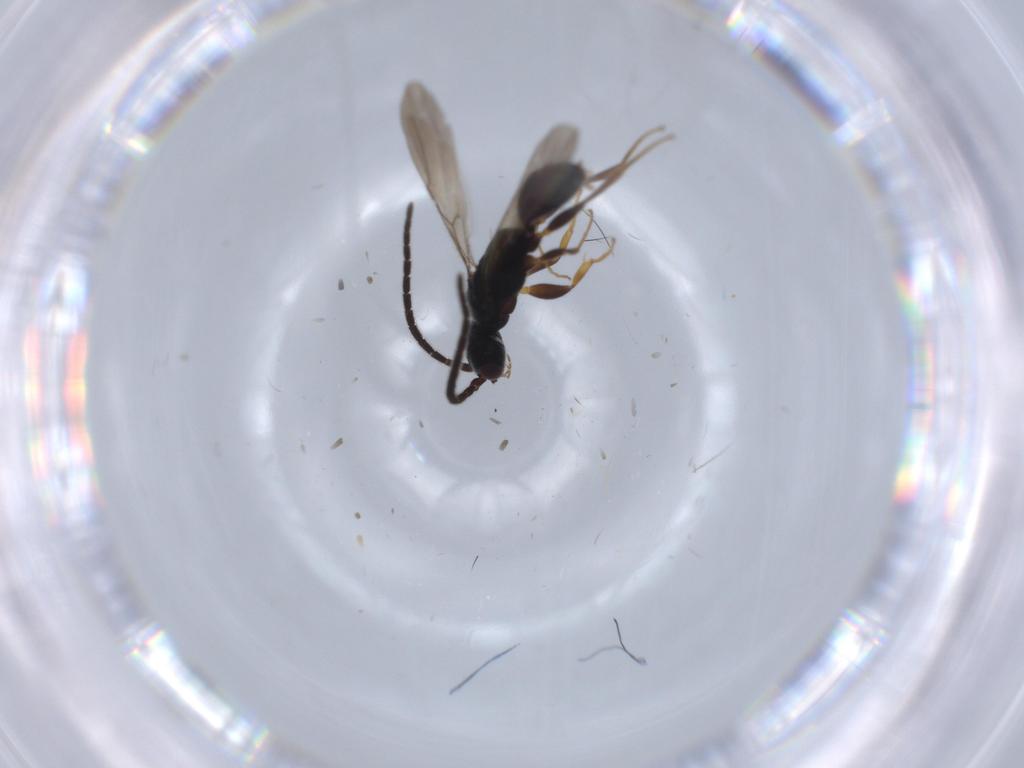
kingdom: Animalia
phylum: Arthropoda
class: Insecta
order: Hymenoptera
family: Bethylidae
